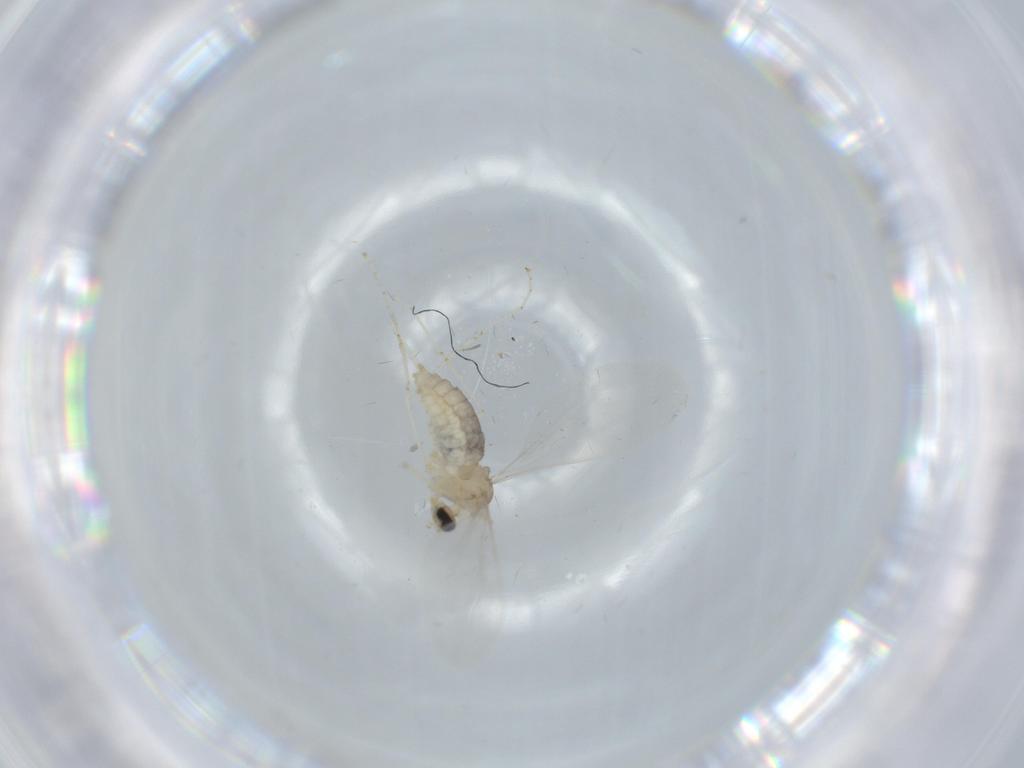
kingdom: Animalia
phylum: Arthropoda
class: Insecta
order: Diptera
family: Cecidomyiidae
